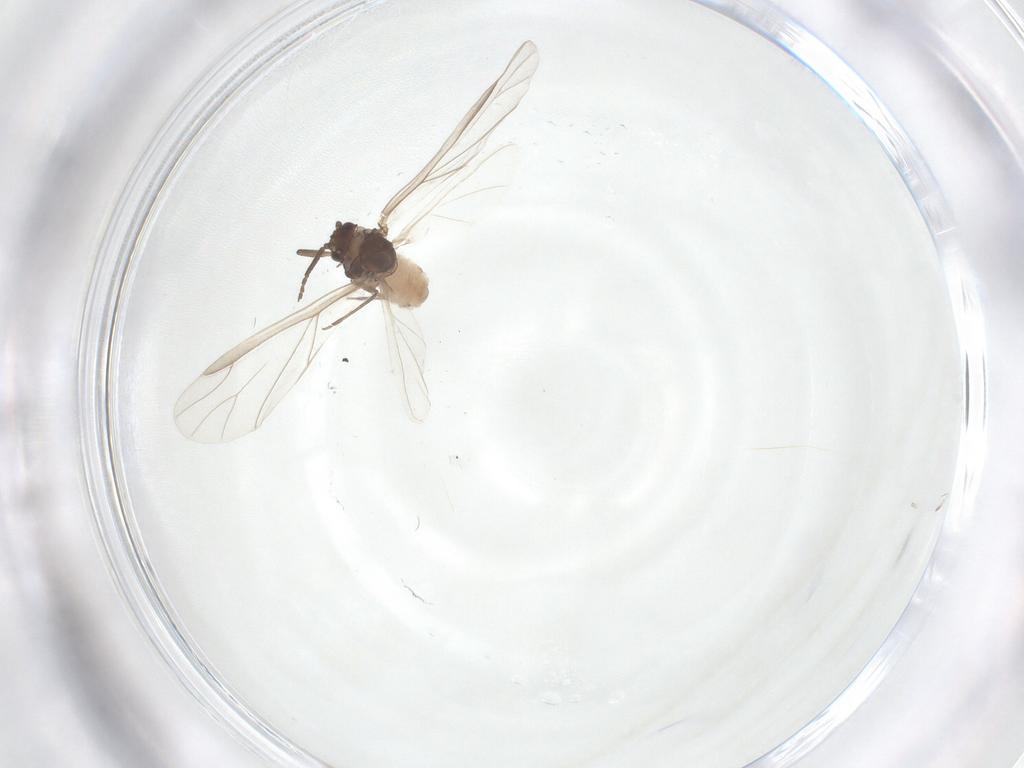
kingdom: Animalia
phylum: Arthropoda
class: Insecta
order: Hemiptera
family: Aphididae
